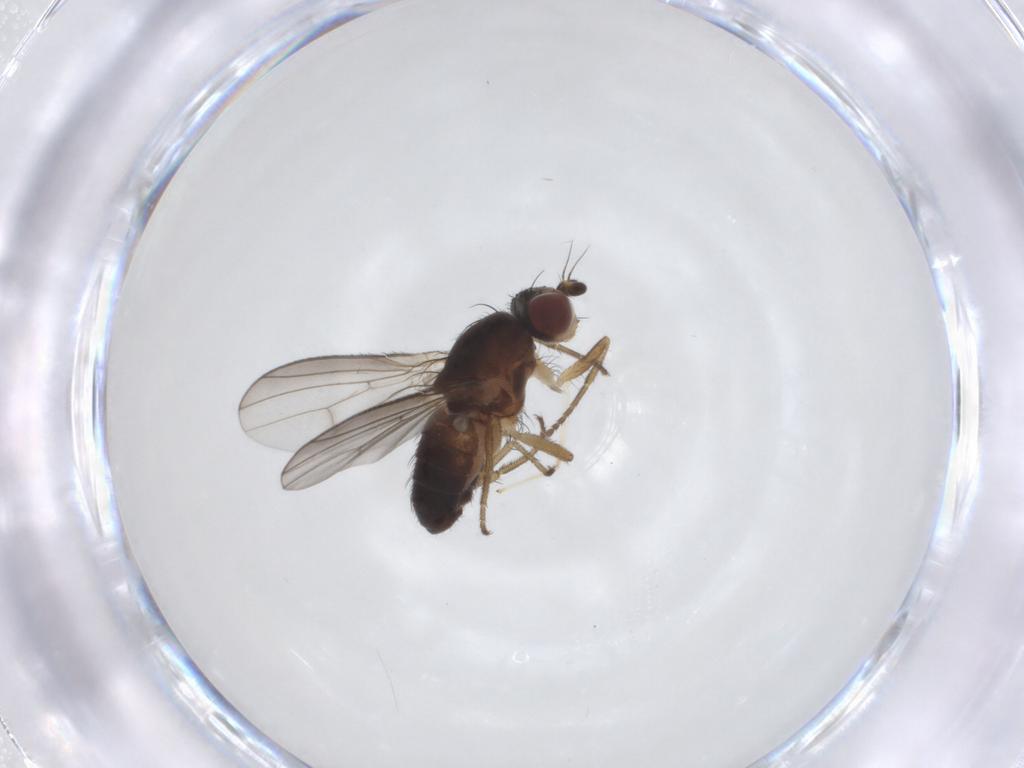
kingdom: Animalia
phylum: Arthropoda
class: Insecta
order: Diptera
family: Heleomyzidae
